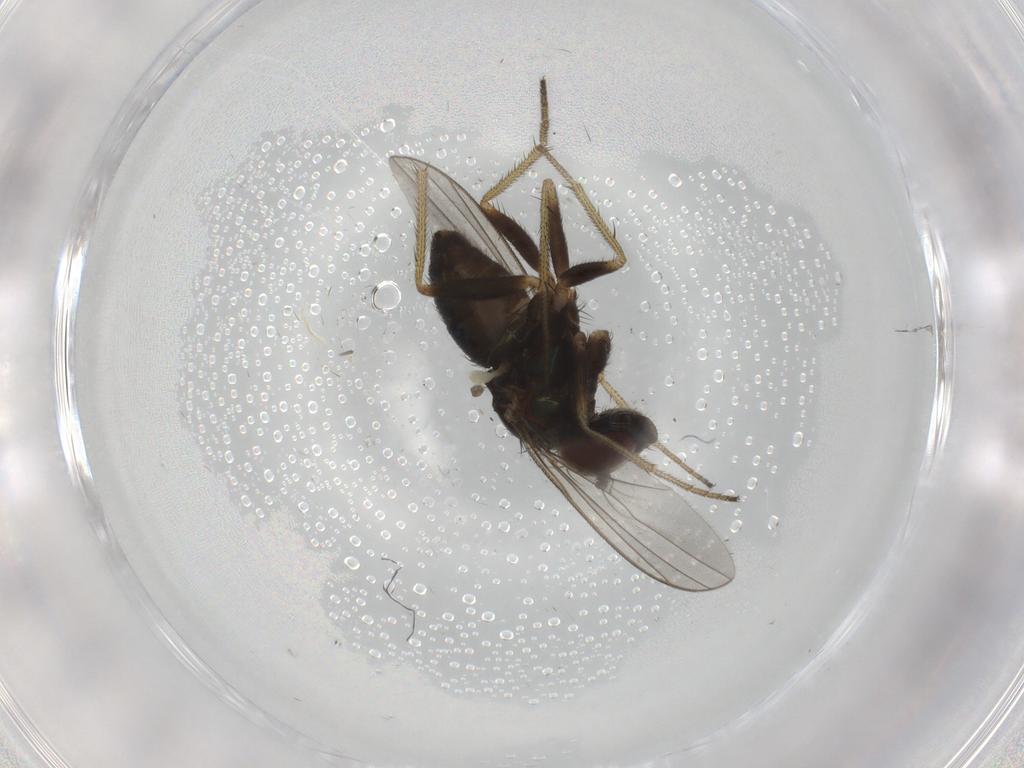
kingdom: Animalia
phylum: Arthropoda
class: Insecta
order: Diptera
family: Dolichopodidae
